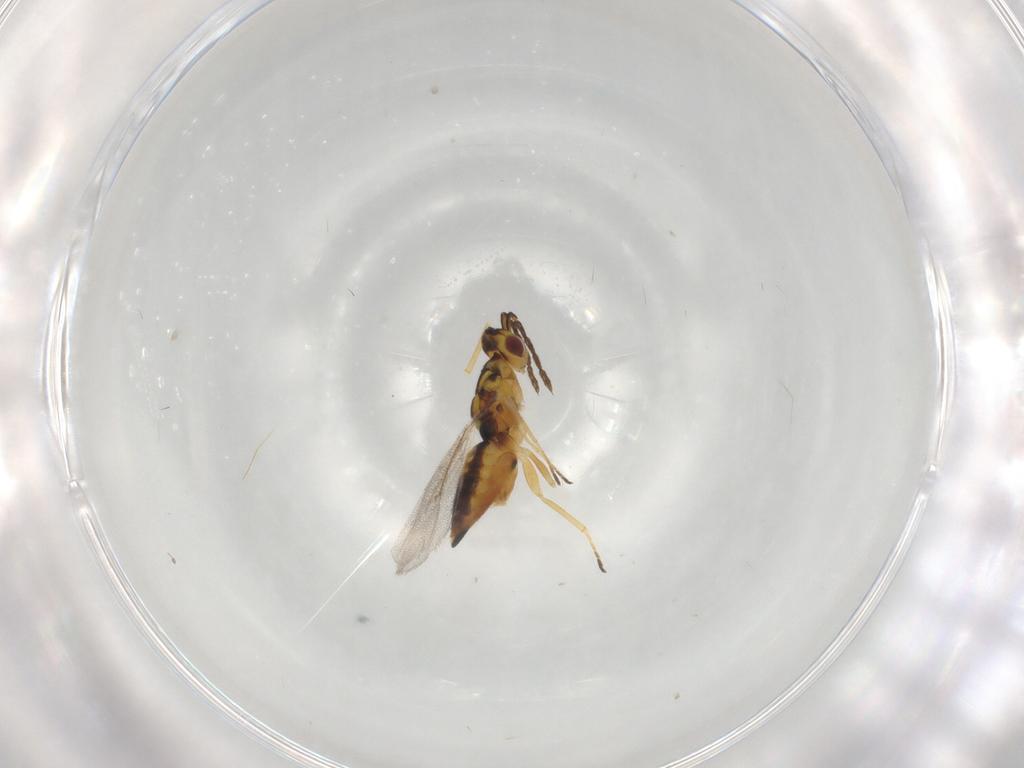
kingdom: Animalia
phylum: Arthropoda
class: Insecta
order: Hymenoptera
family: Eulophidae
